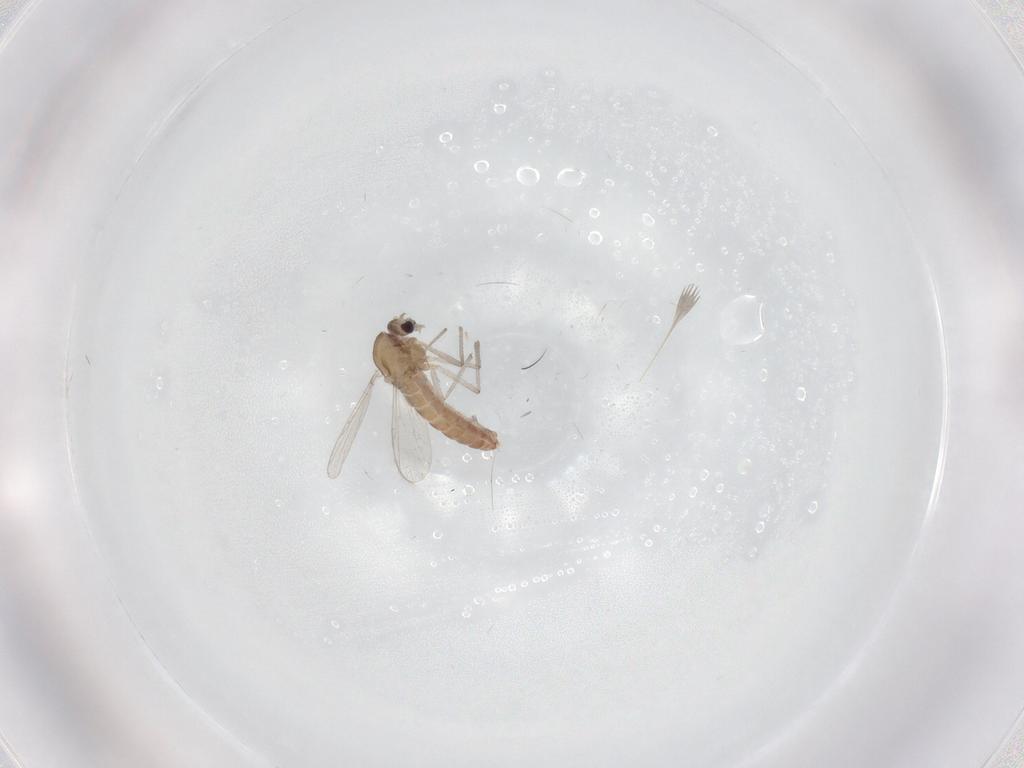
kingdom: Animalia
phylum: Arthropoda
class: Insecta
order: Diptera
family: Chironomidae
